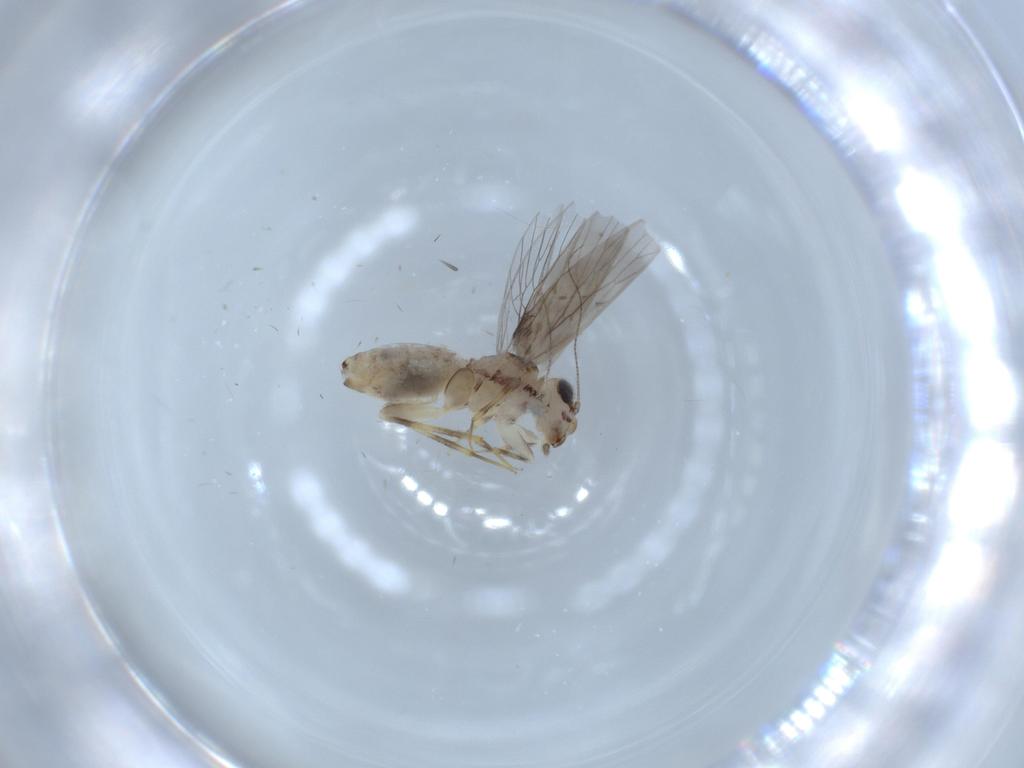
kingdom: Animalia
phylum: Arthropoda
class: Insecta
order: Psocodea
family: Lepidopsocidae
